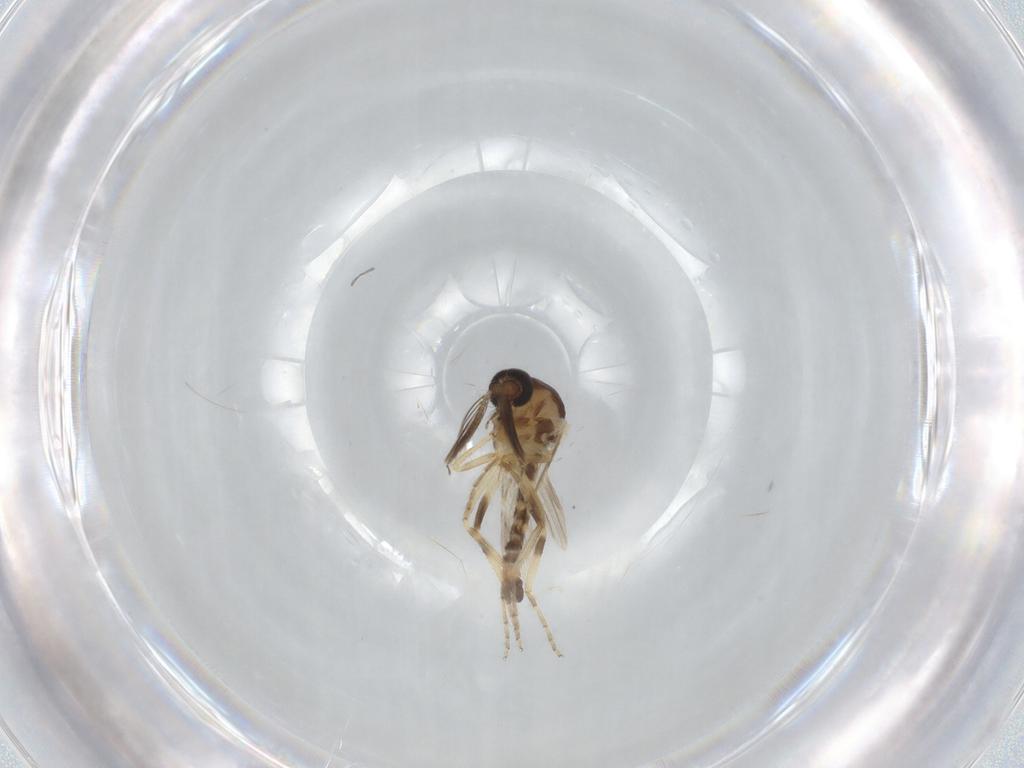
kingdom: Animalia
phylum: Arthropoda
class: Insecta
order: Diptera
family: Ceratopogonidae
